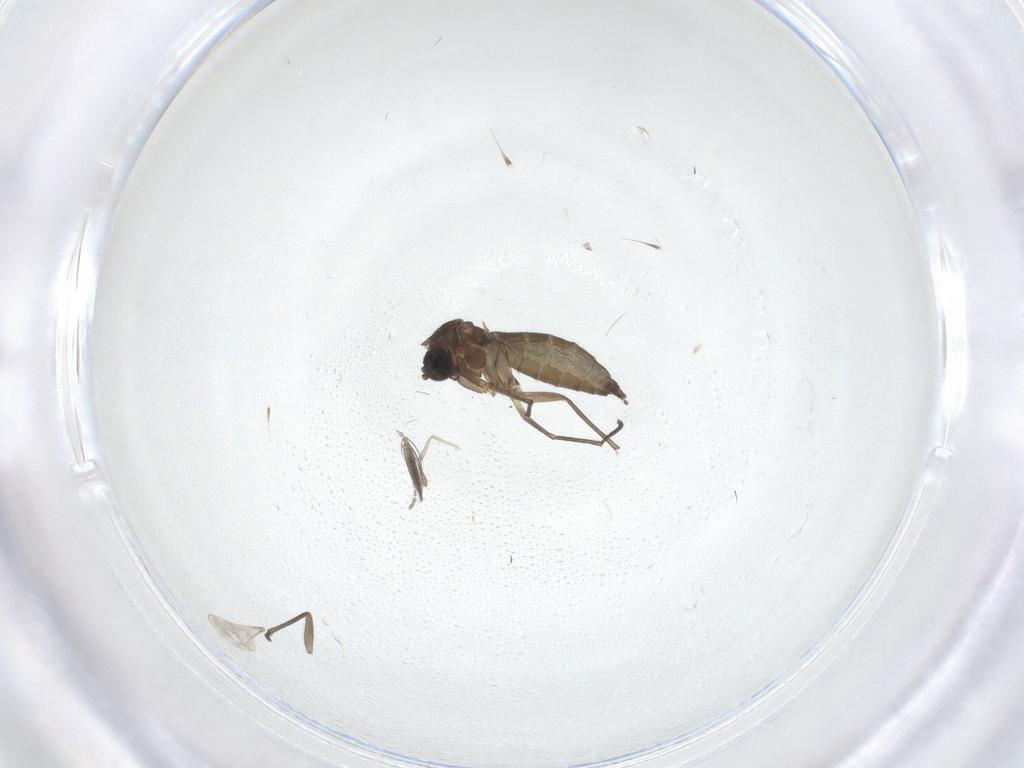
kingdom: Animalia
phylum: Arthropoda
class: Insecta
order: Diptera
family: Sciaridae
